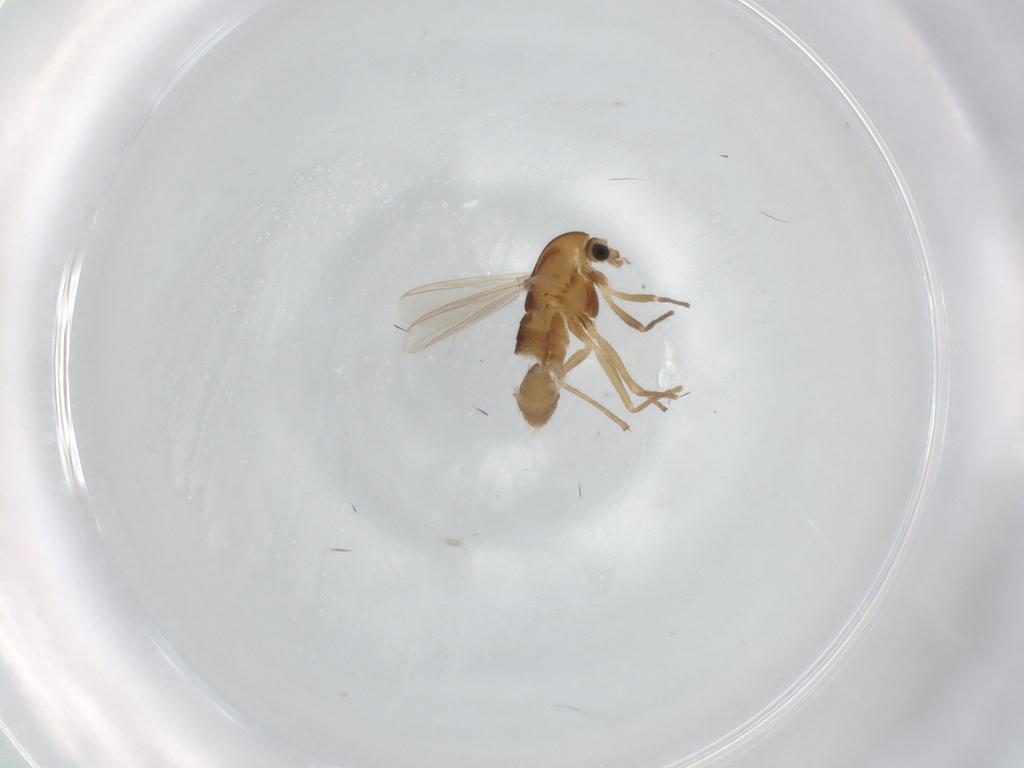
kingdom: Animalia
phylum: Arthropoda
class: Insecta
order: Diptera
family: Chironomidae
